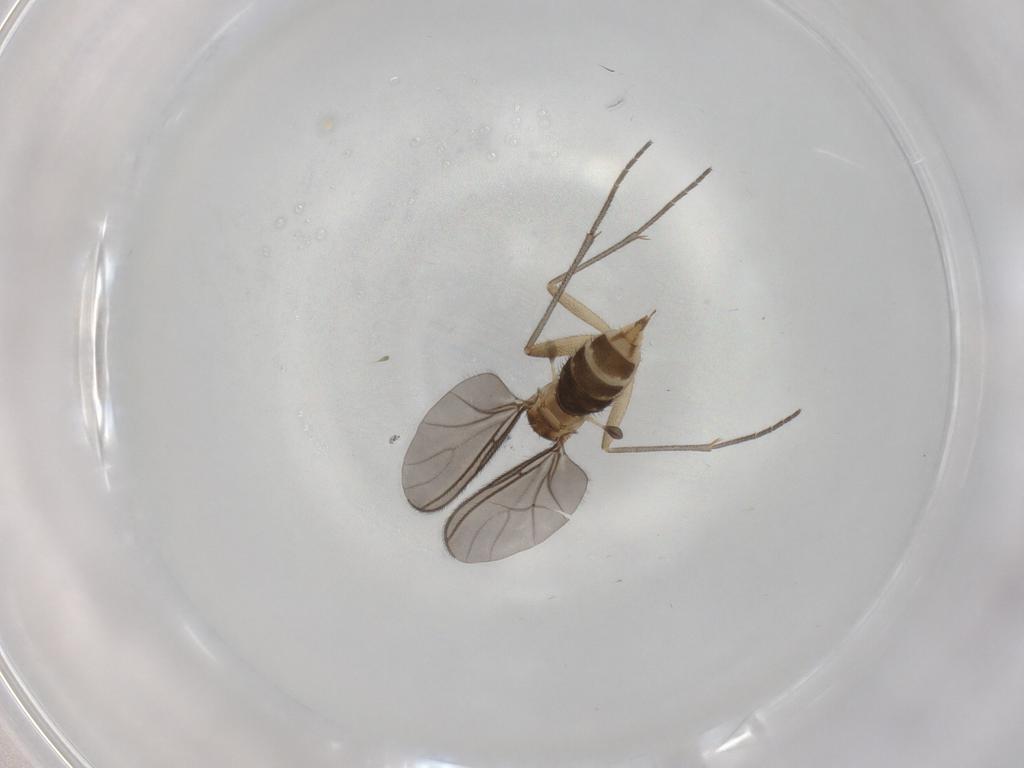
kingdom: Animalia
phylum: Arthropoda
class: Insecta
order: Diptera
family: Sciaridae
